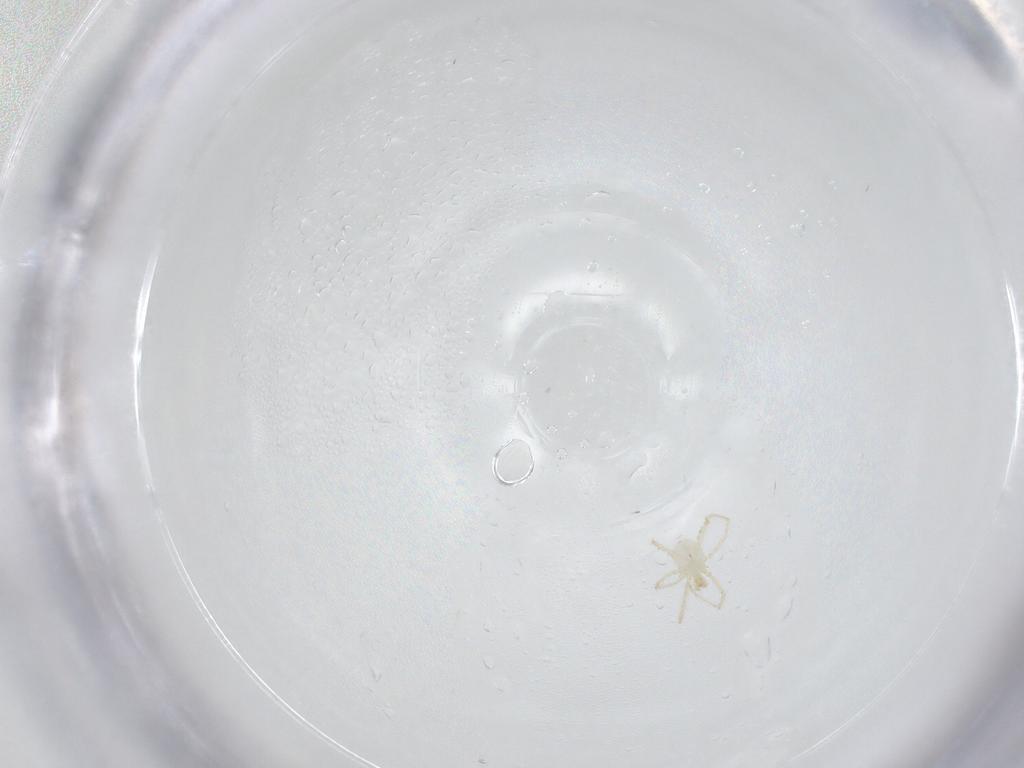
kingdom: Animalia
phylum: Arthropoda
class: Arachnida
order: Trombidiformes
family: Erythraeidae
